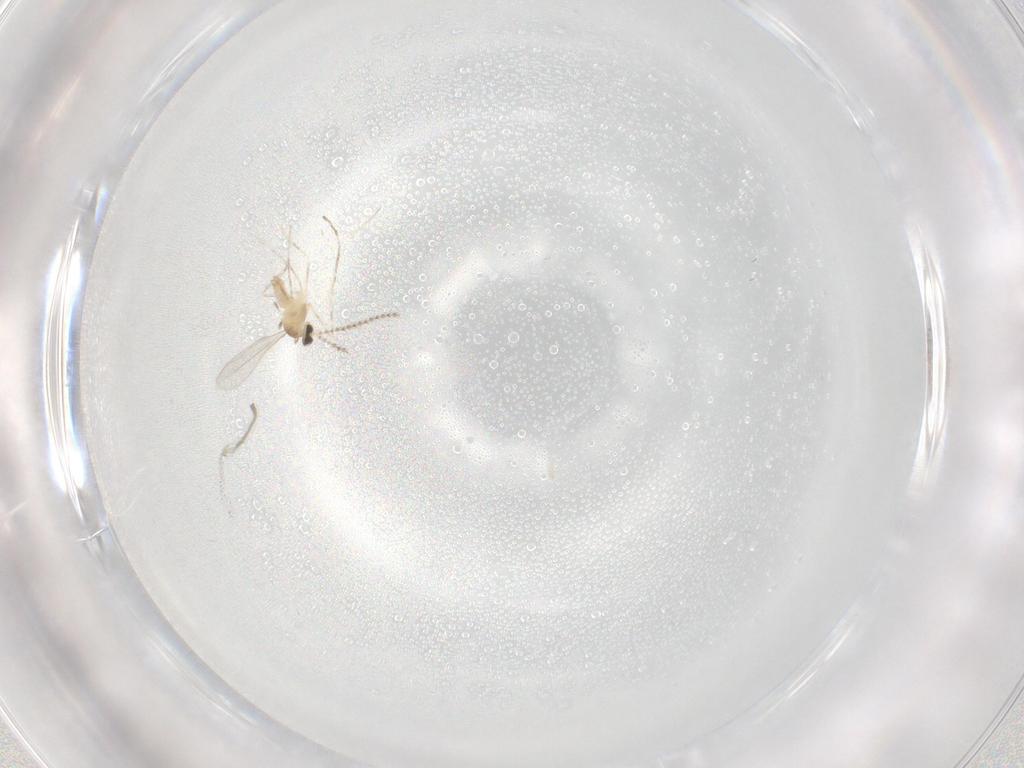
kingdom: Animalia
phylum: Arthropoda
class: Insecta
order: Diptera
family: Cecidomyiidae
